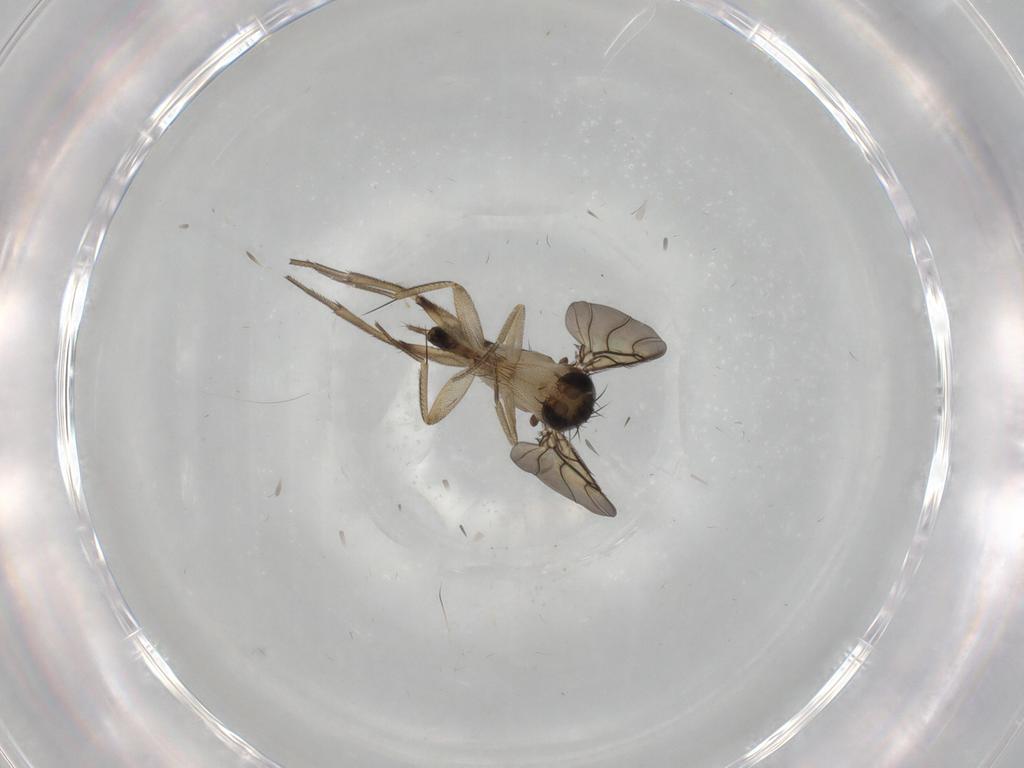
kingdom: Animalia
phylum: Arthropoda
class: Insecta
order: Diptera
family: Phoridae
